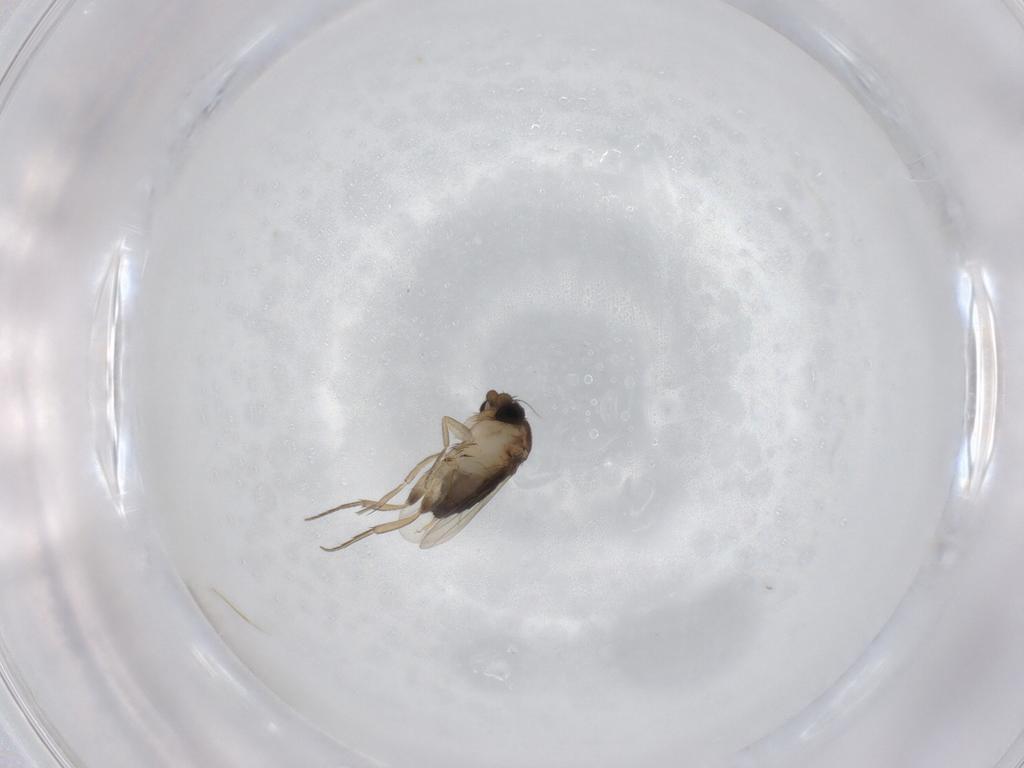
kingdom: Animalia
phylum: Arthropoda
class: Insecta
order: Diptera
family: Phoridae
